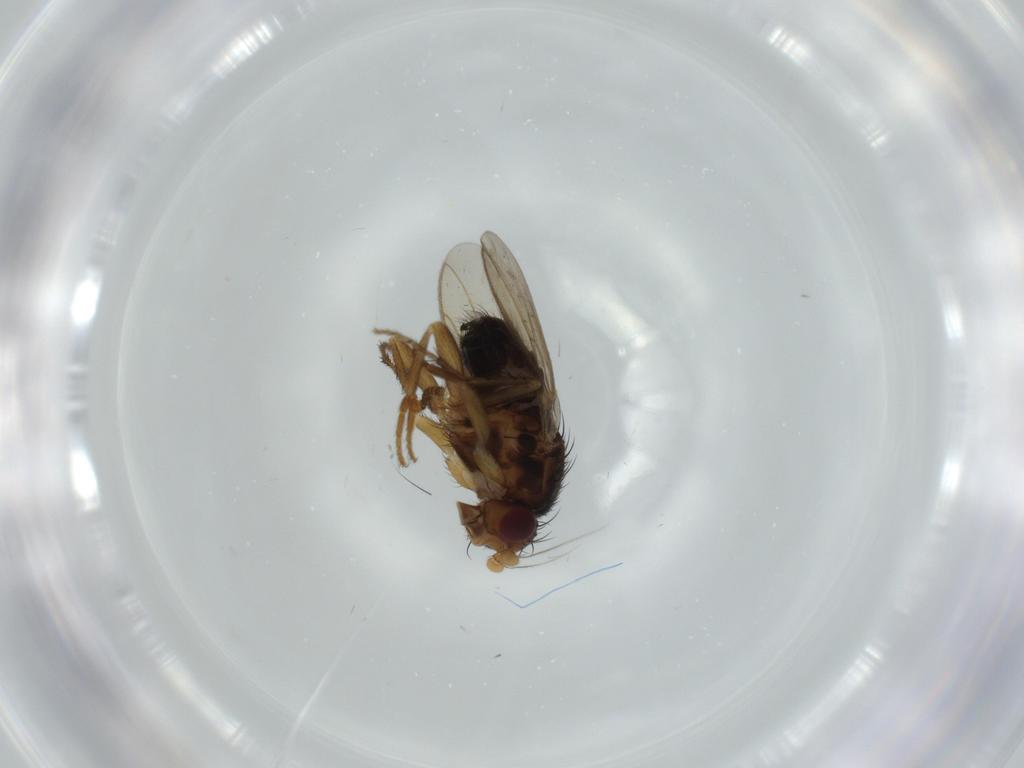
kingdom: Animalia
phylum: Arthropoda
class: Insecta
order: Diptera
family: Sphaeroceridae
